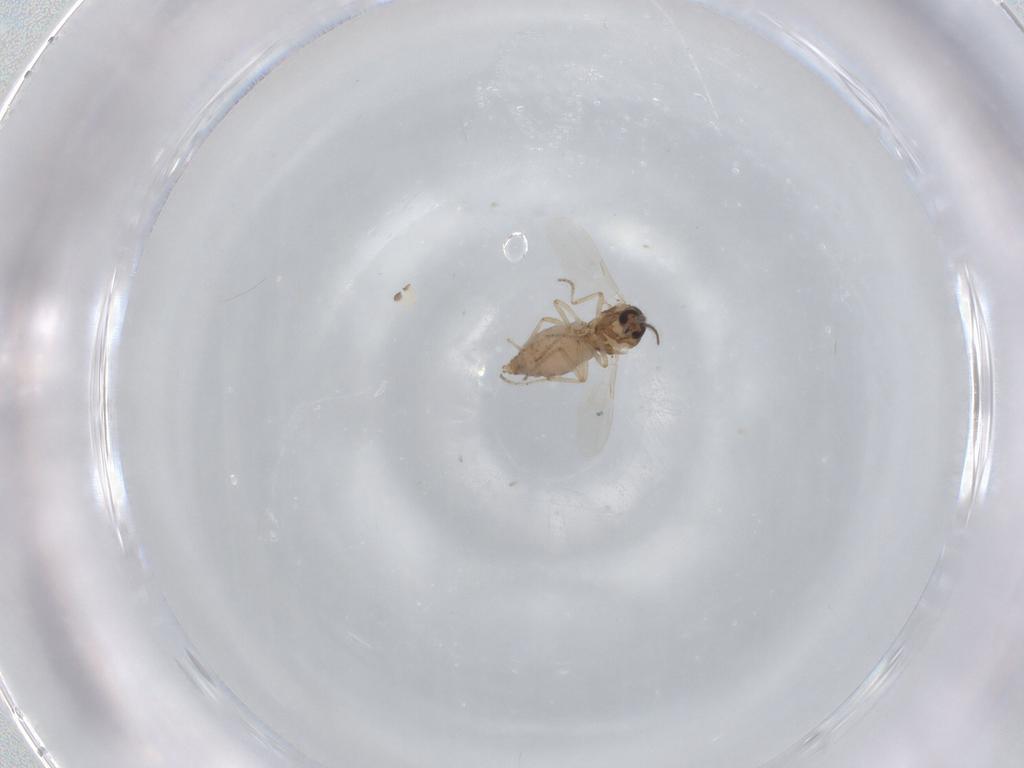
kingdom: Animalia
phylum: Arthropoda
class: Insecta
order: Diptera
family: Ceratopogonidae
